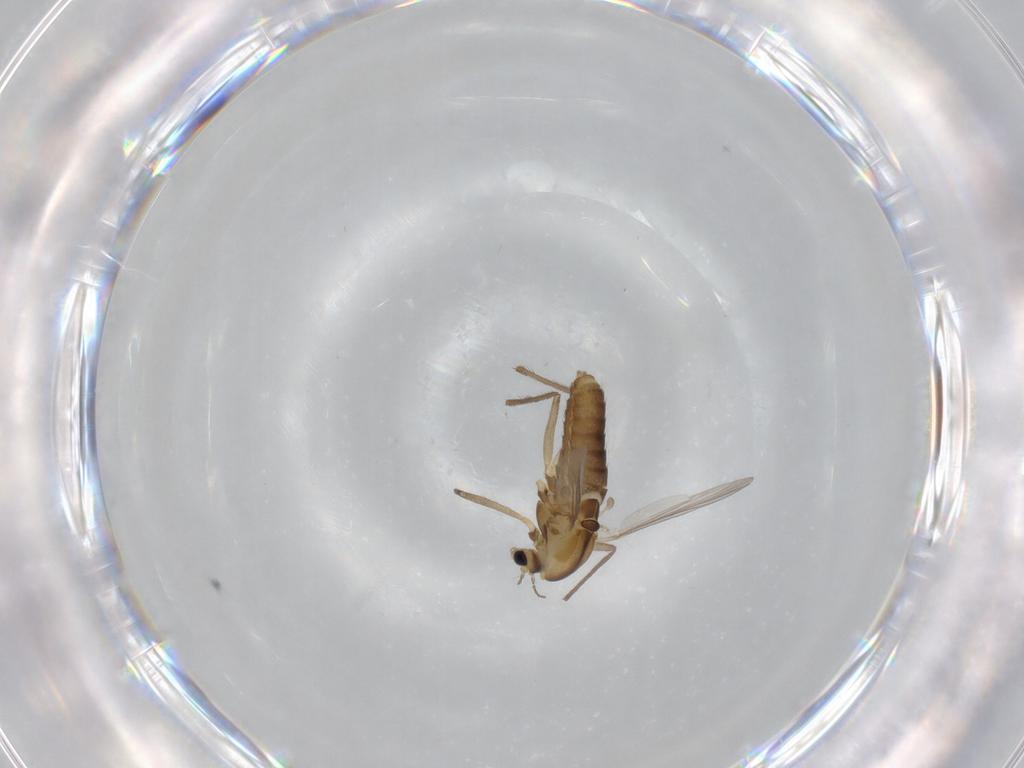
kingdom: Animalia
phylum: Arthropoda
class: Insecta
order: Diptera
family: Chironomidae
